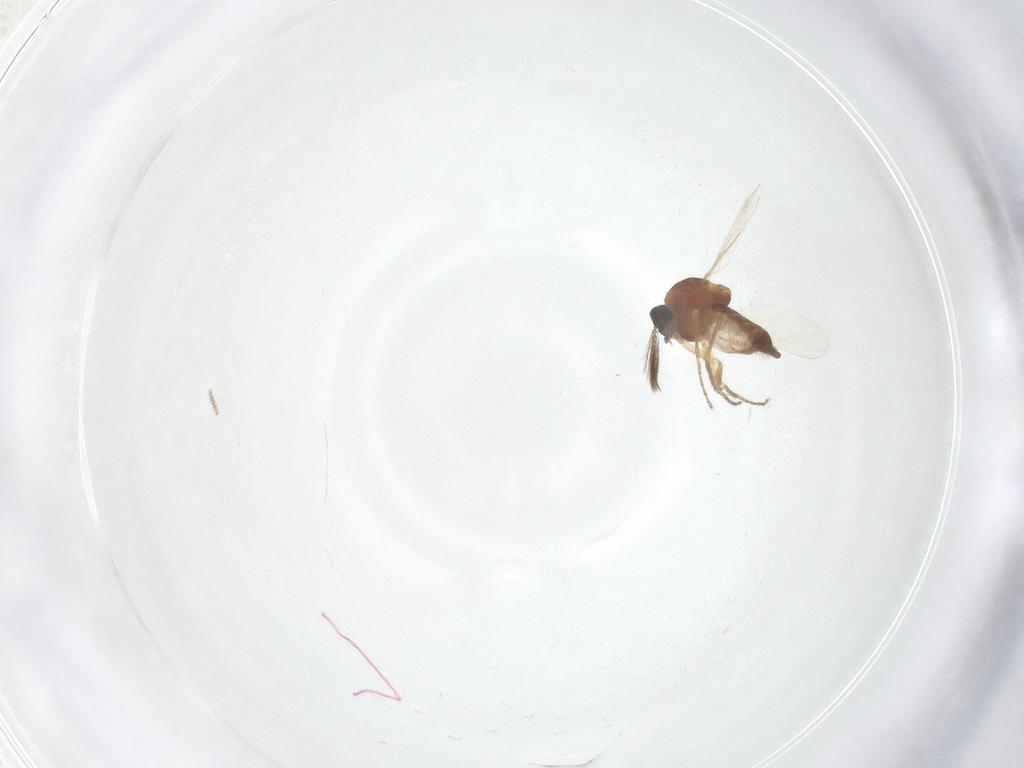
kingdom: Animalia
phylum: Arthropoda
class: Insecta
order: Diptera
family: Ceratopogonidae
